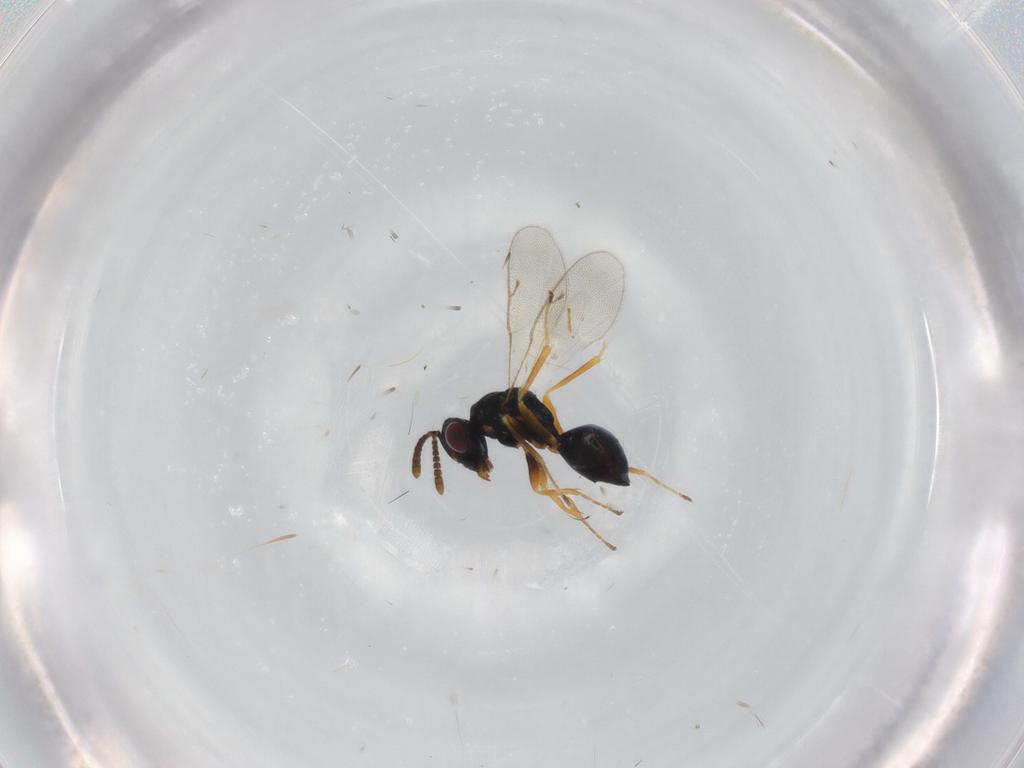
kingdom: Animalia
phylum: Arthropoda
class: Insecta
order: Hymenoptera
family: Pteromalidae
